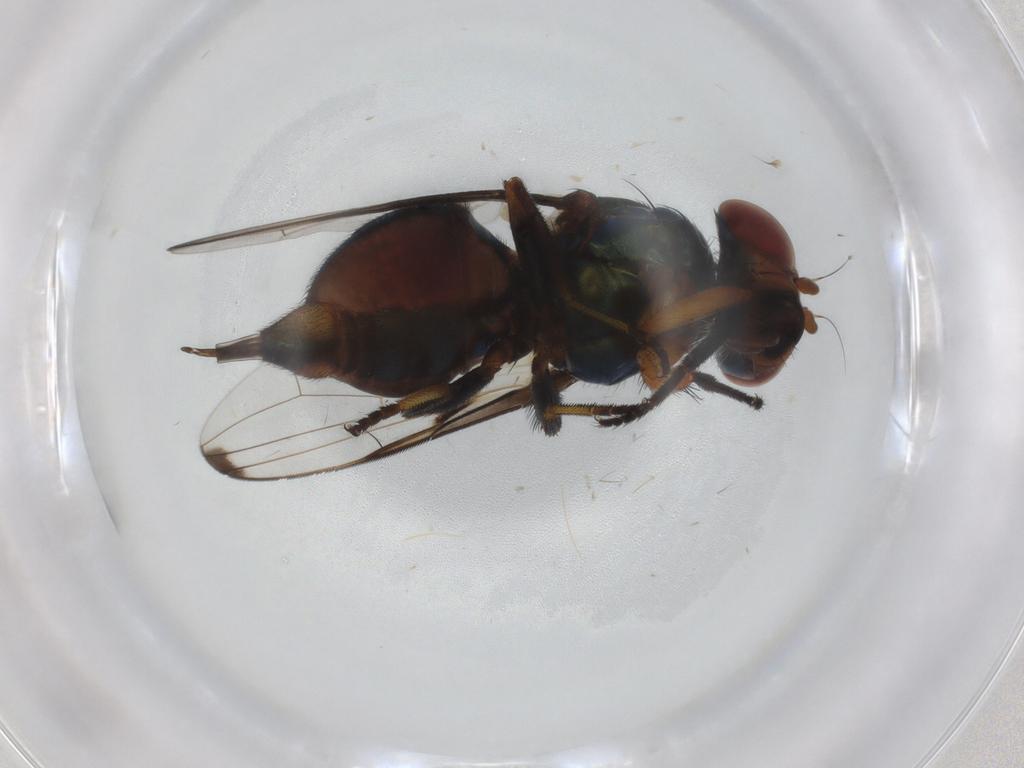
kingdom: Animalia
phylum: Arthropoda
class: Insecta
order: Diptera
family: Ulidiidae
